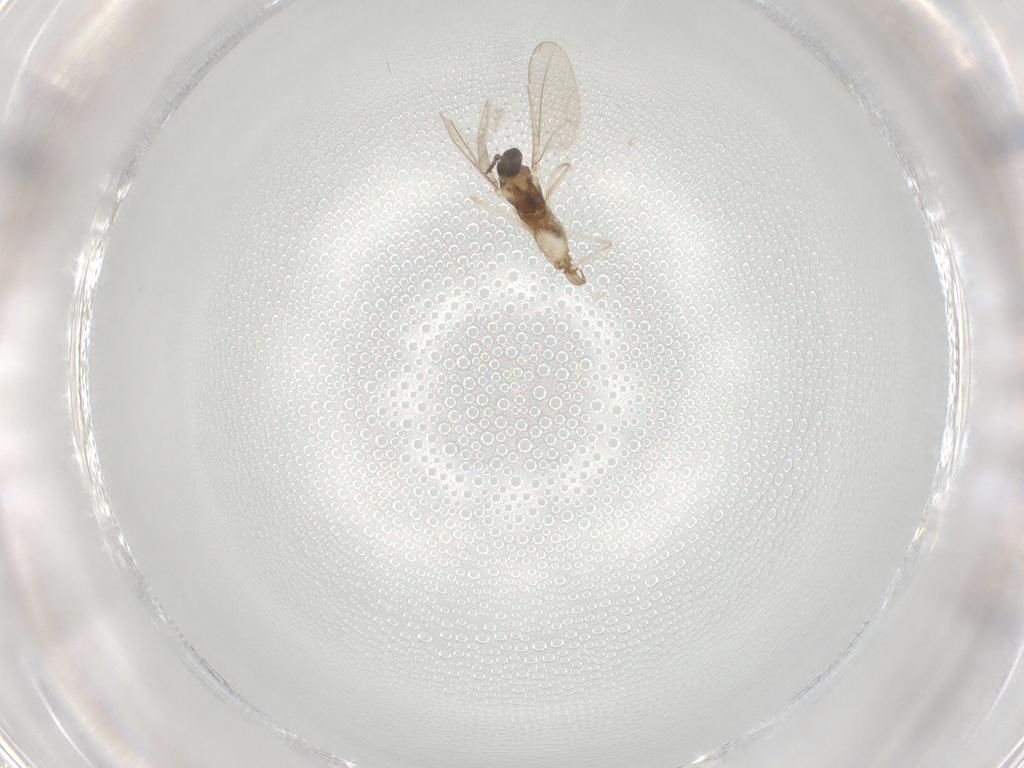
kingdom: Animalia
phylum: Arthropoda
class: Insecta
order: Diptera
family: Cecidomyiidae
